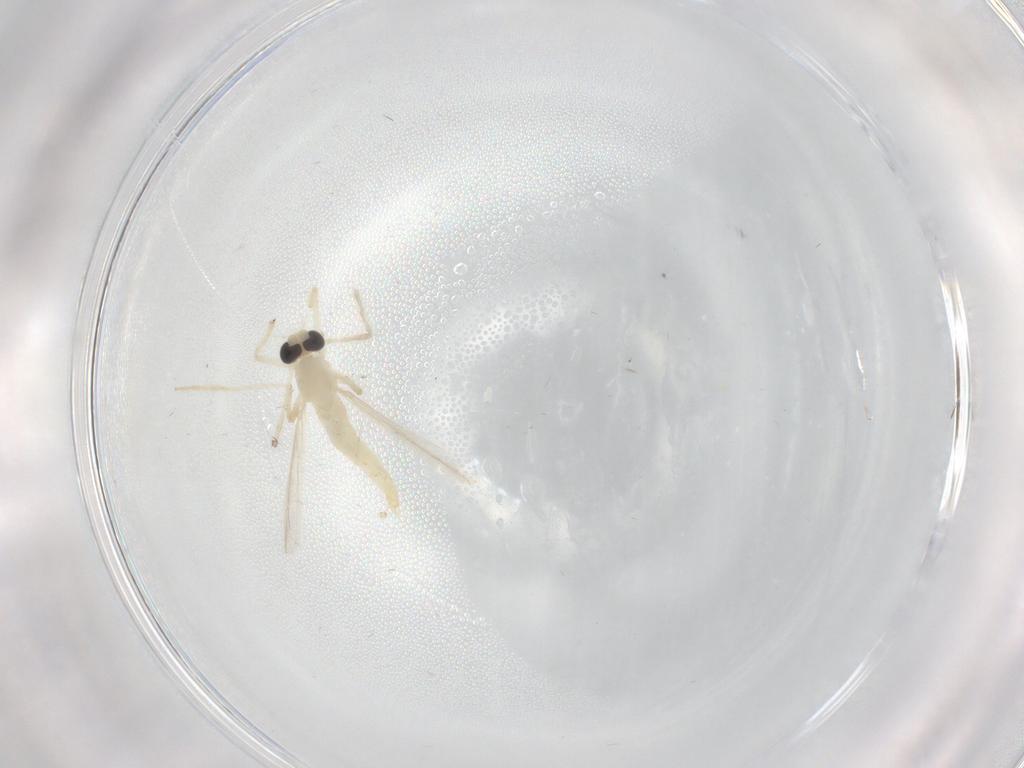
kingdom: Animalia
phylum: Arthropoda
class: Insecta
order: Diptera
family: Chironomidae
